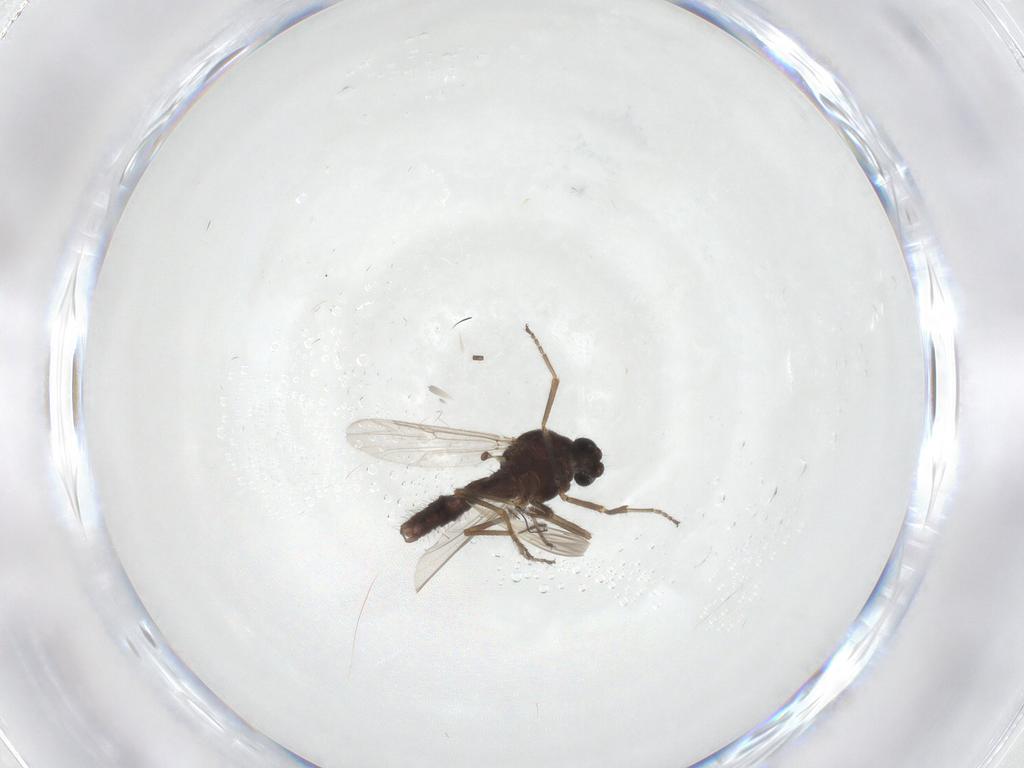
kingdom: Animalia
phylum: Arthropoda
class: Insecta
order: Diptera
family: Ceratopogonidae
